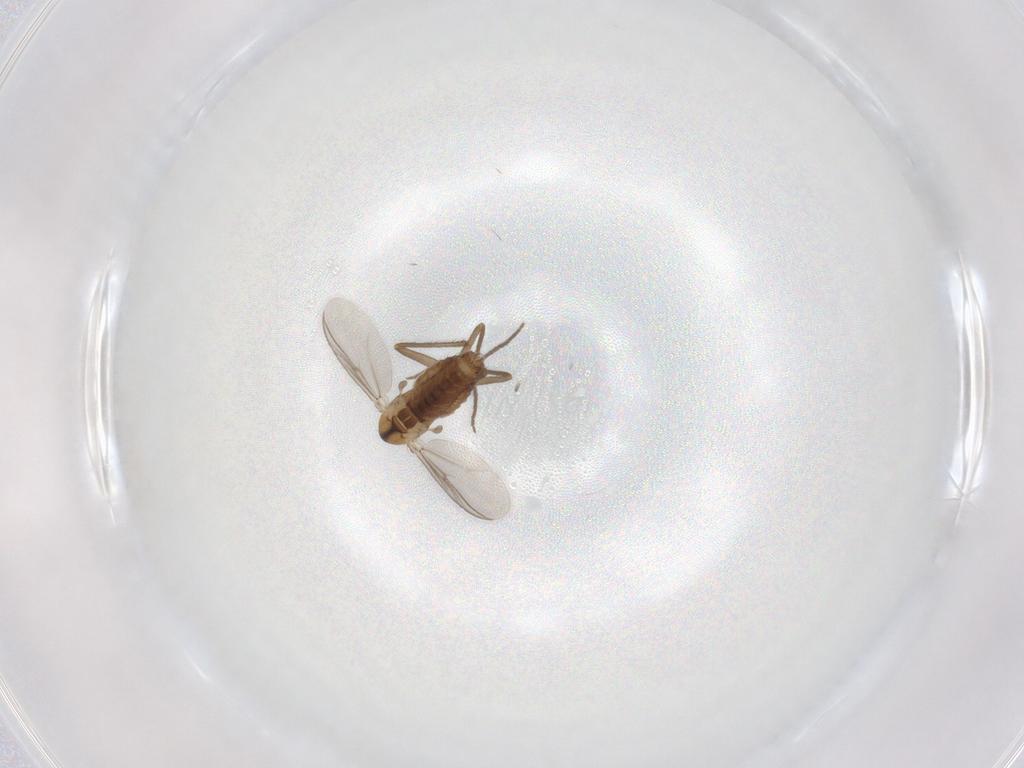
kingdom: Animalia
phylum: Arthropoda
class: Insecta
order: Diptera
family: Chironomidae
